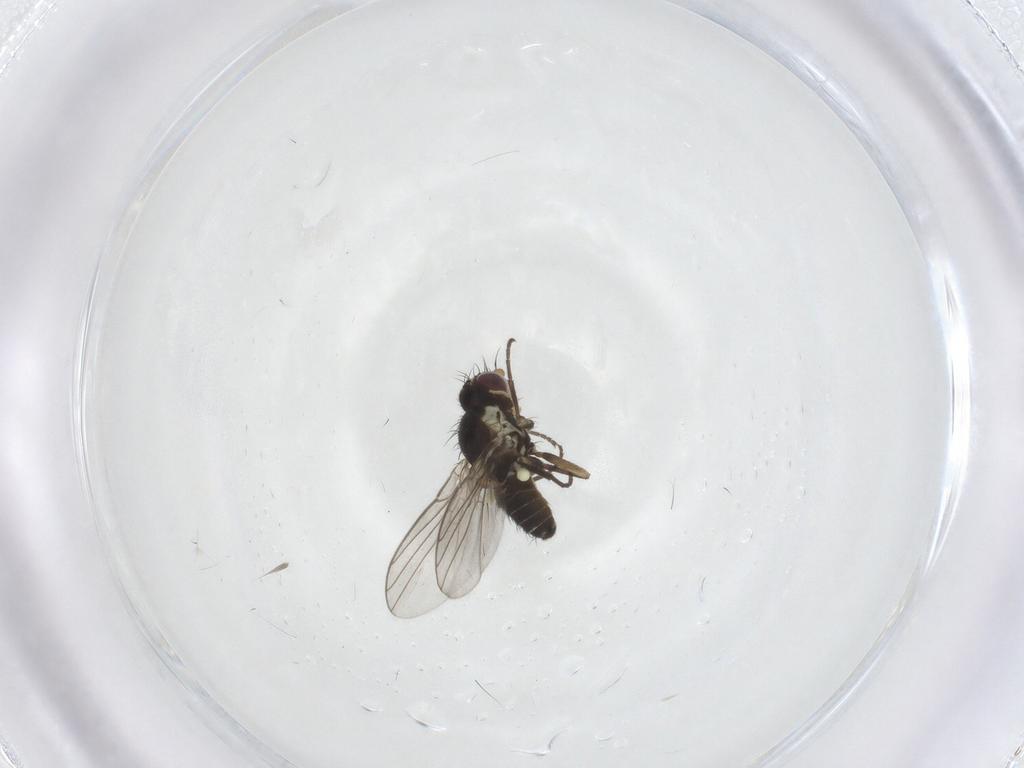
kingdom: Animalia
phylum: Arthropoda
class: Insecta
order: Diptera
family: Agromyzidae
